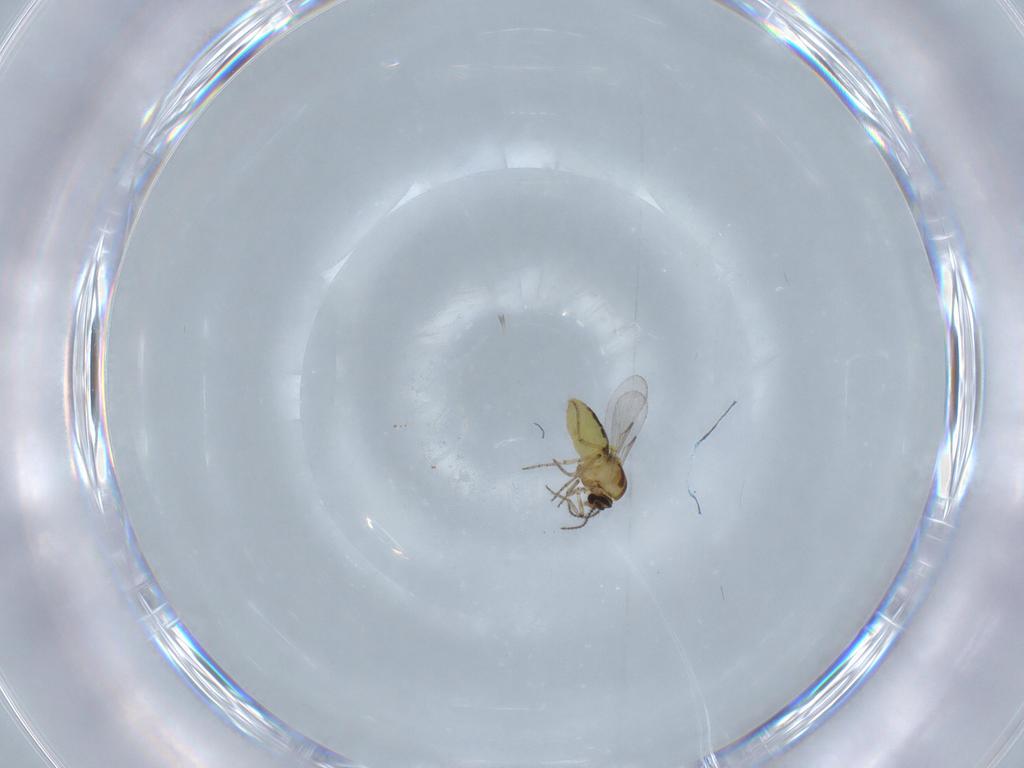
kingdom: Animalia
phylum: Arthropoda
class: Insecta
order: Diptera
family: Ceratopogonidae
